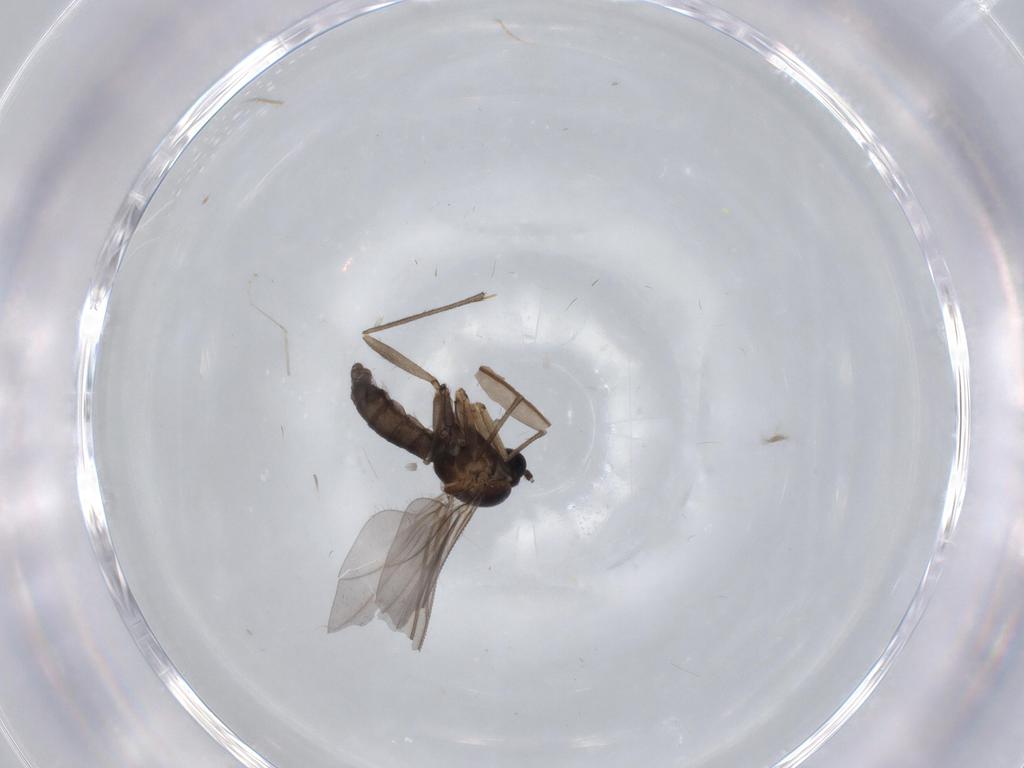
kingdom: Animalia
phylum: Arthropoda
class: Insecta
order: Diptera
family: Sciaridae
